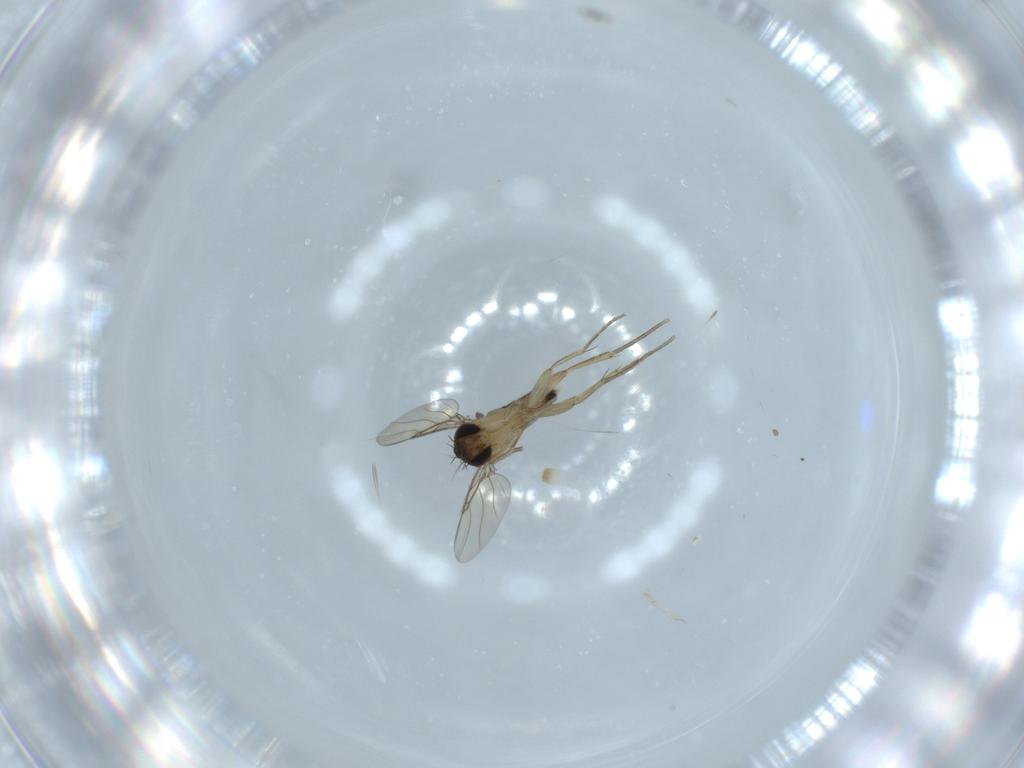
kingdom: Animalia
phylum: Arthropoda
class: Insecta
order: Diptera
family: Phoridae
